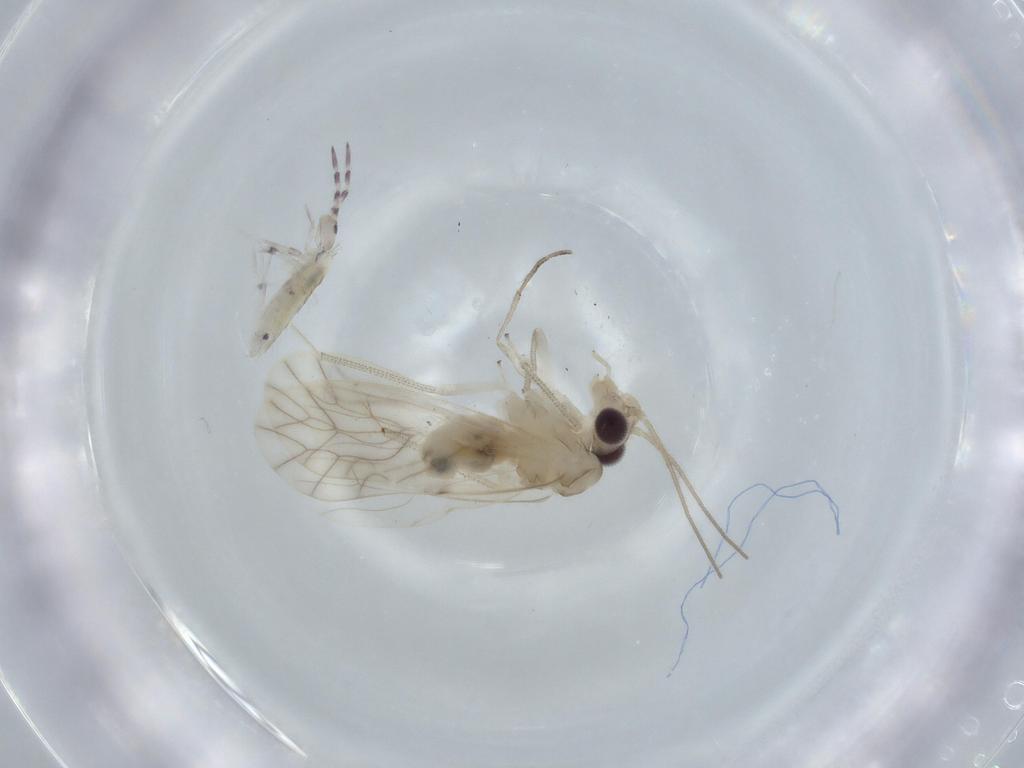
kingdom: Animalia
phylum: Arthropoda
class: Collembola
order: Entomobryomorpha
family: Entomobryidae
